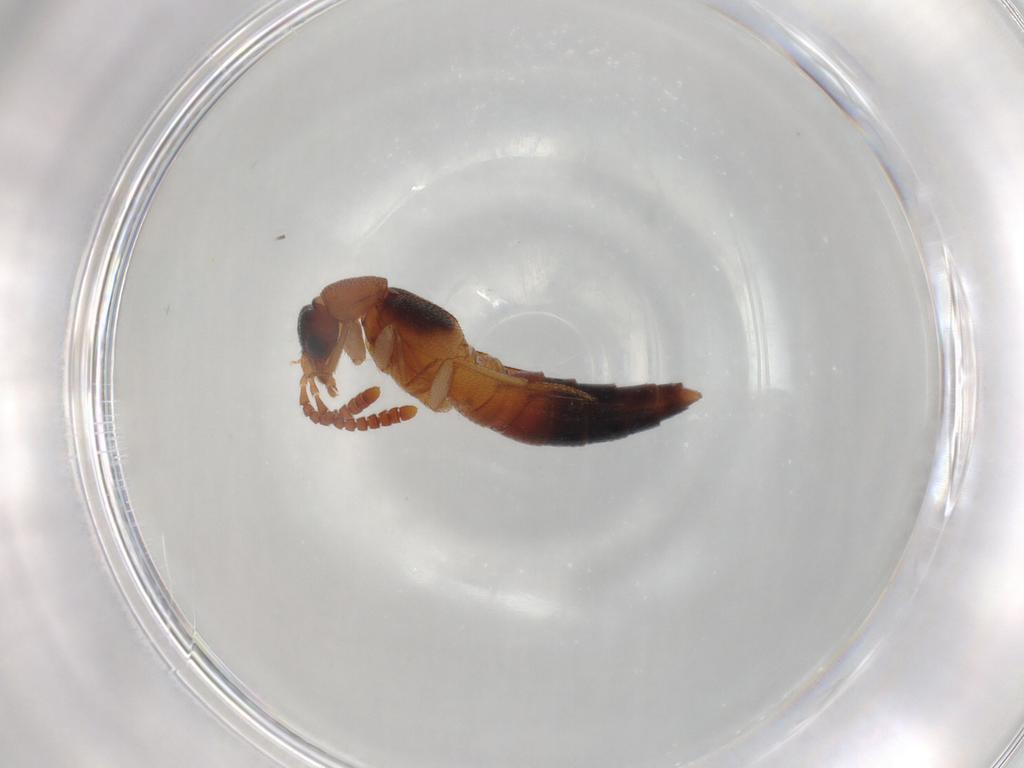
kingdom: Animalia
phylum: Arthropoda
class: Insecta
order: Coleoptera
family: Staphylinidae
